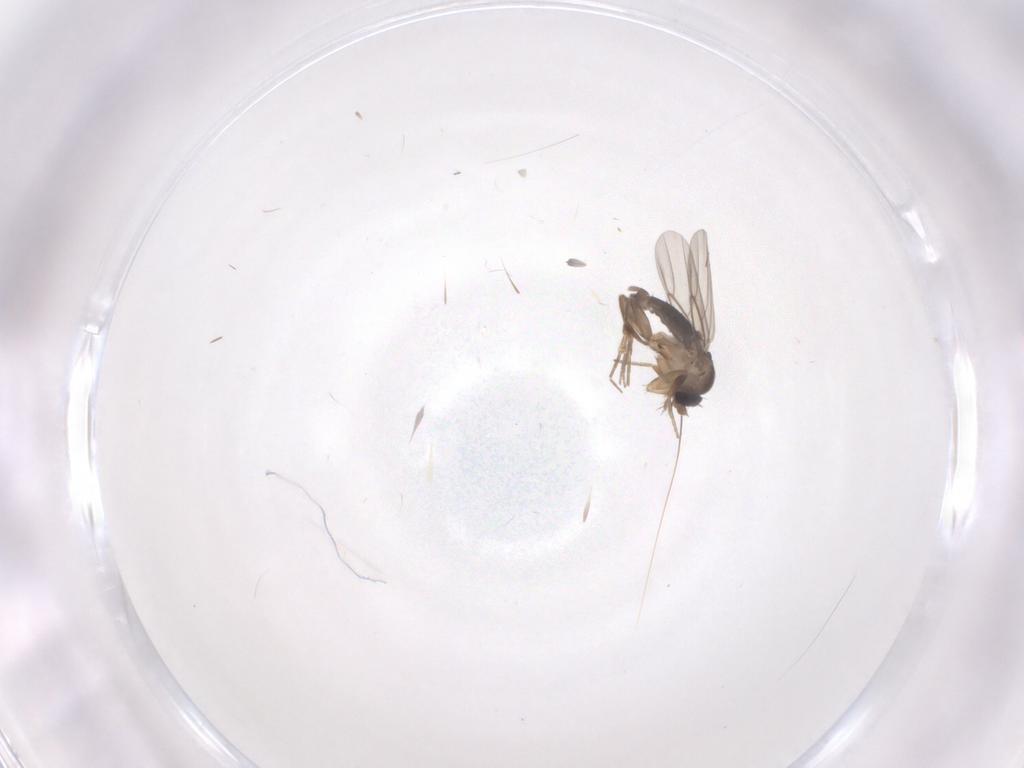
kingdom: Animalia
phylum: Arthropoda
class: Insecta
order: Diptera
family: Phoridae
